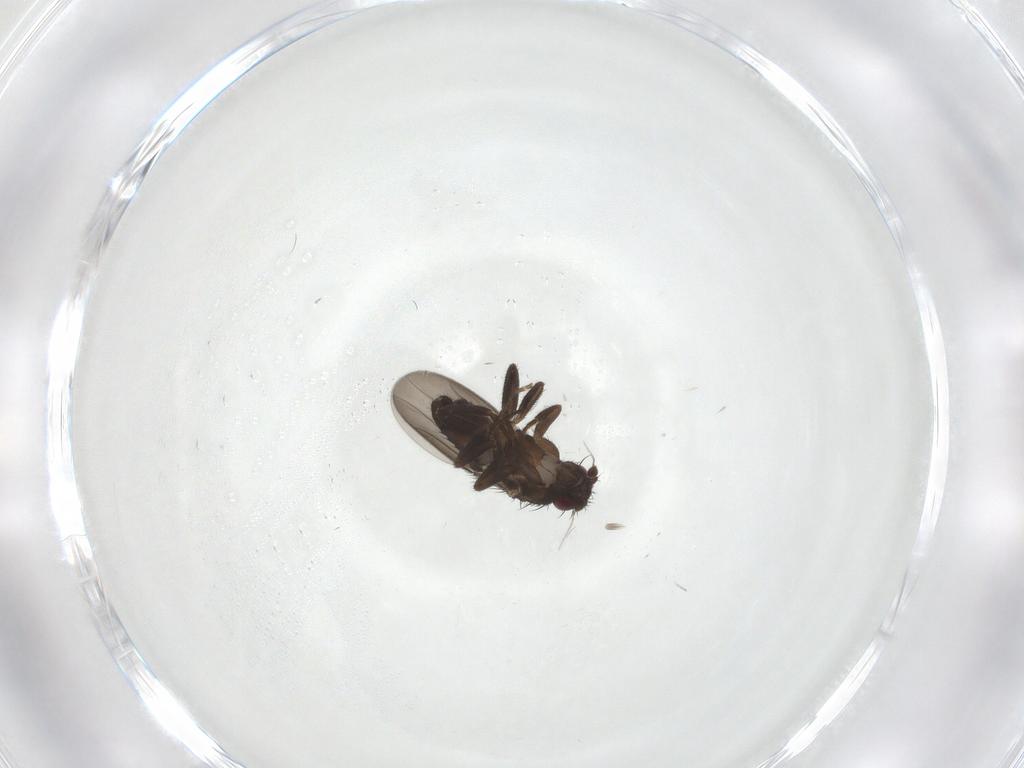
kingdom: Animalia
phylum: Arthropoda
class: Insecta
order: Diptera
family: Sphaeroceridae
